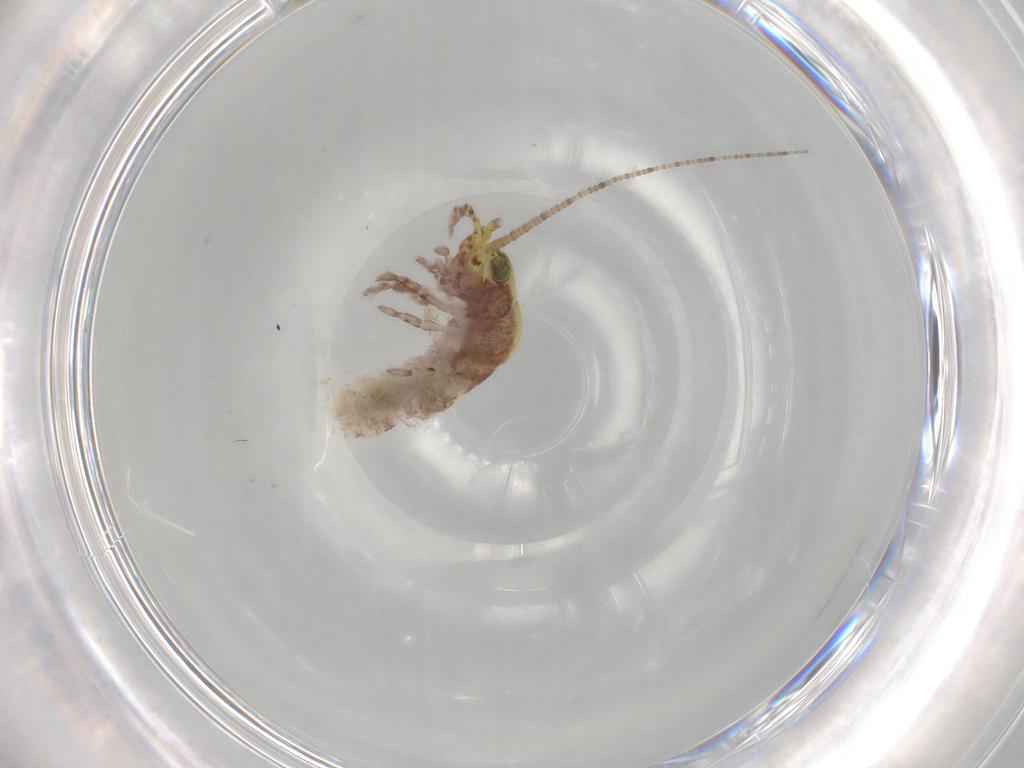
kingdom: Animalia
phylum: Arthropoda
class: Insecta
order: Archaeognatha
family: Machilidae
